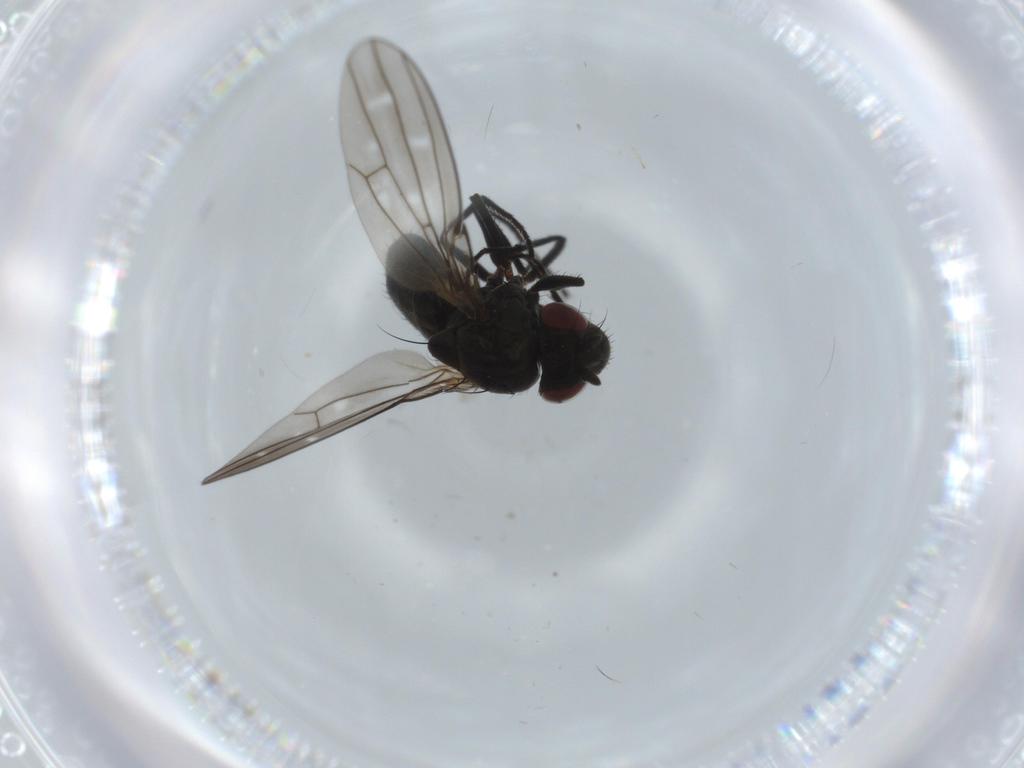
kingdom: Animalia
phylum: Arthropoda
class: Insecta
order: Diptera
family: Ephydridae
